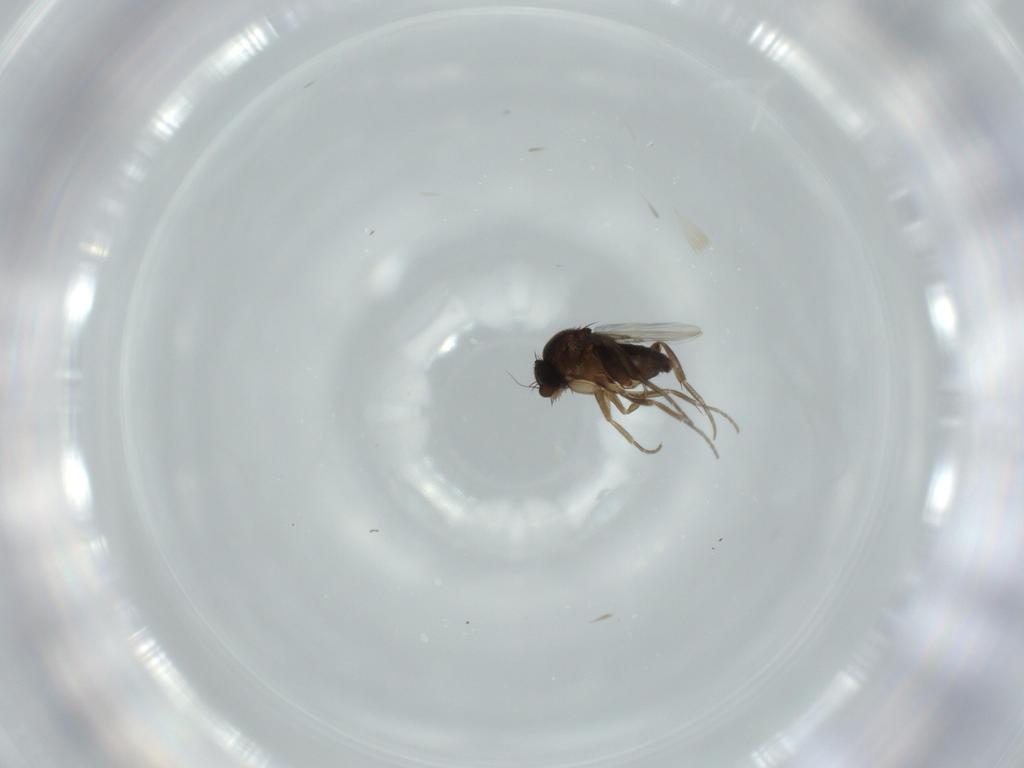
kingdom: Animalia
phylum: Arthropoda
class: Insecta
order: Diptera
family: Phoridae
